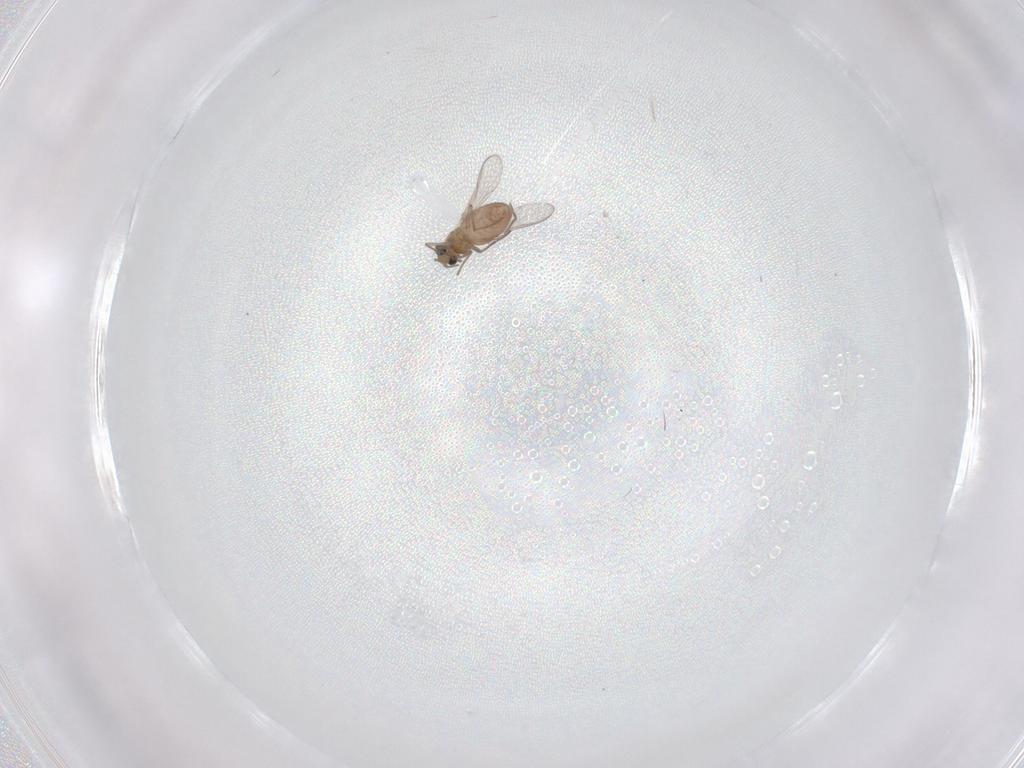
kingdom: Animalia
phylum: Arthropoda
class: Insecta
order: Diptera
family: Chironomidae
